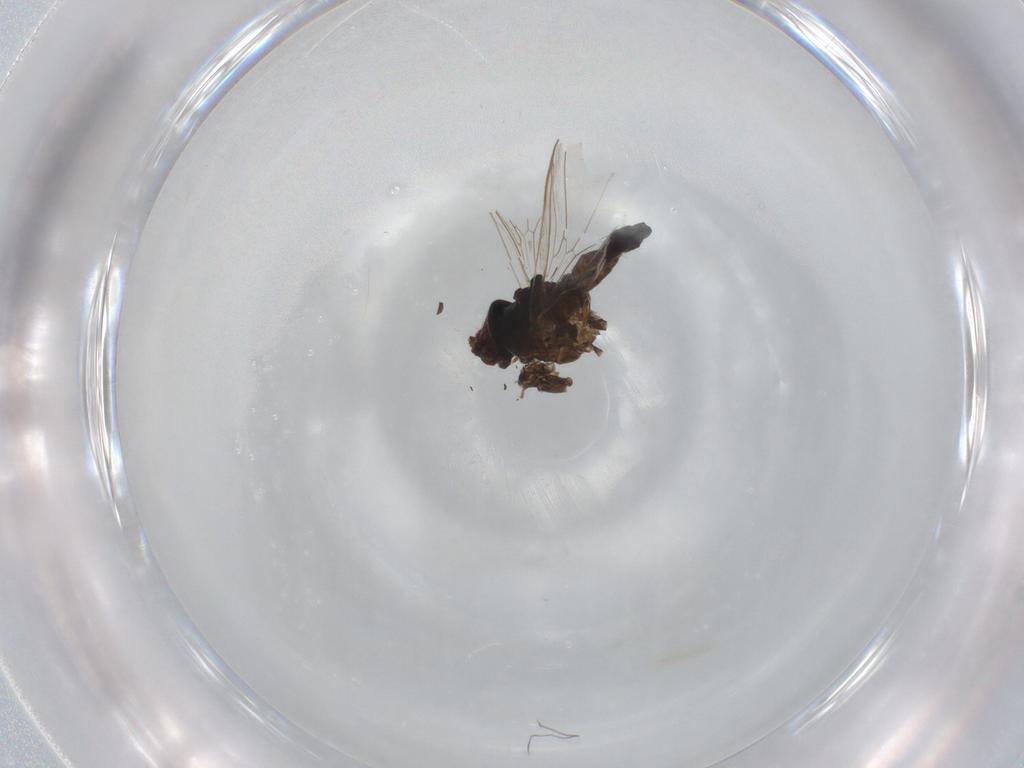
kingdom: Animalia
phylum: Arthropoda
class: Insecta
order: Diptera
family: Pipunculidae
